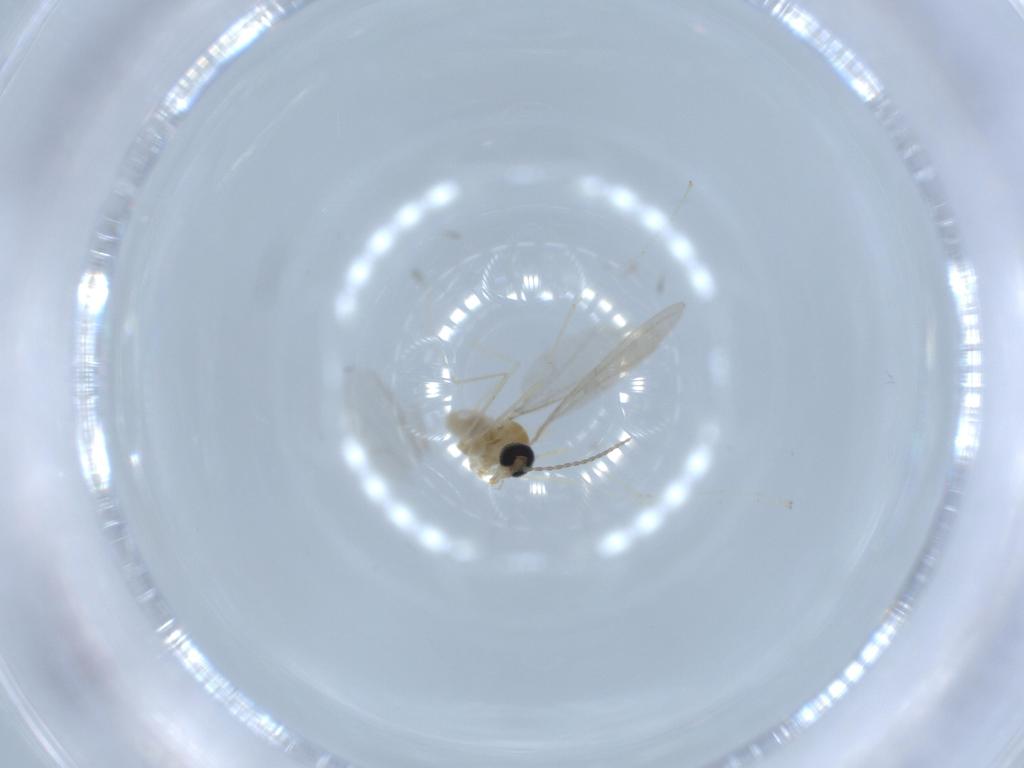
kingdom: Animalia
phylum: Arthropoda
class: Insecta
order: Diptera
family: Cecidomyiidae
